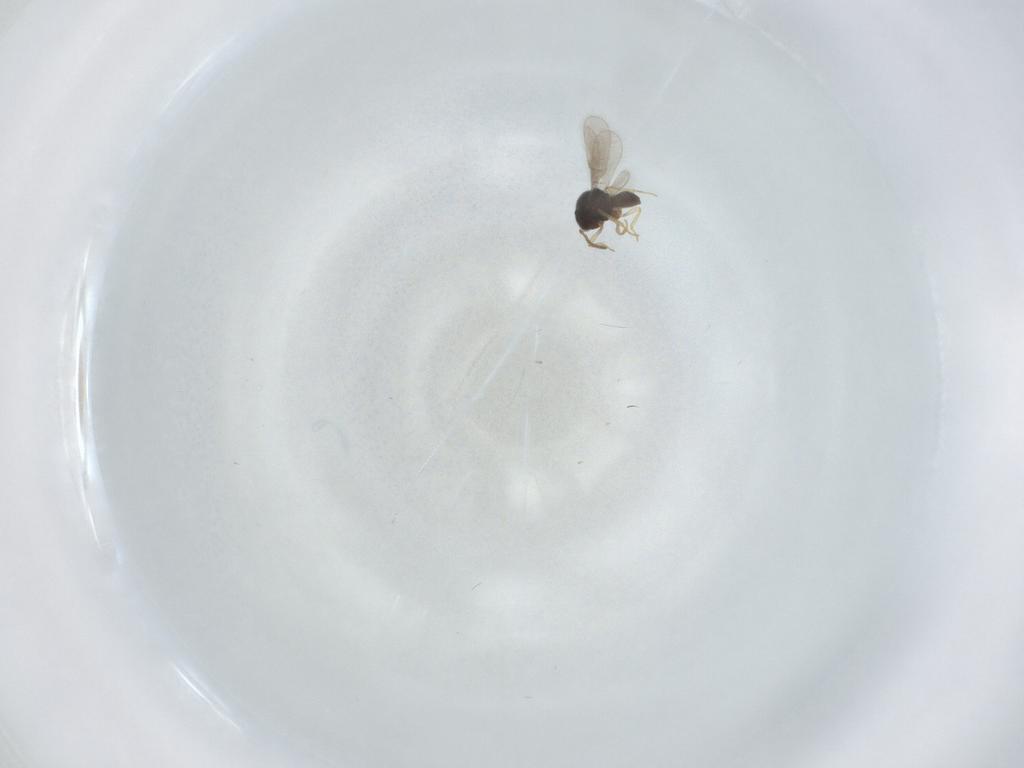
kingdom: Animalia
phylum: Arthropoda
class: Insecta
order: Hymenoptera
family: Scelionidae
